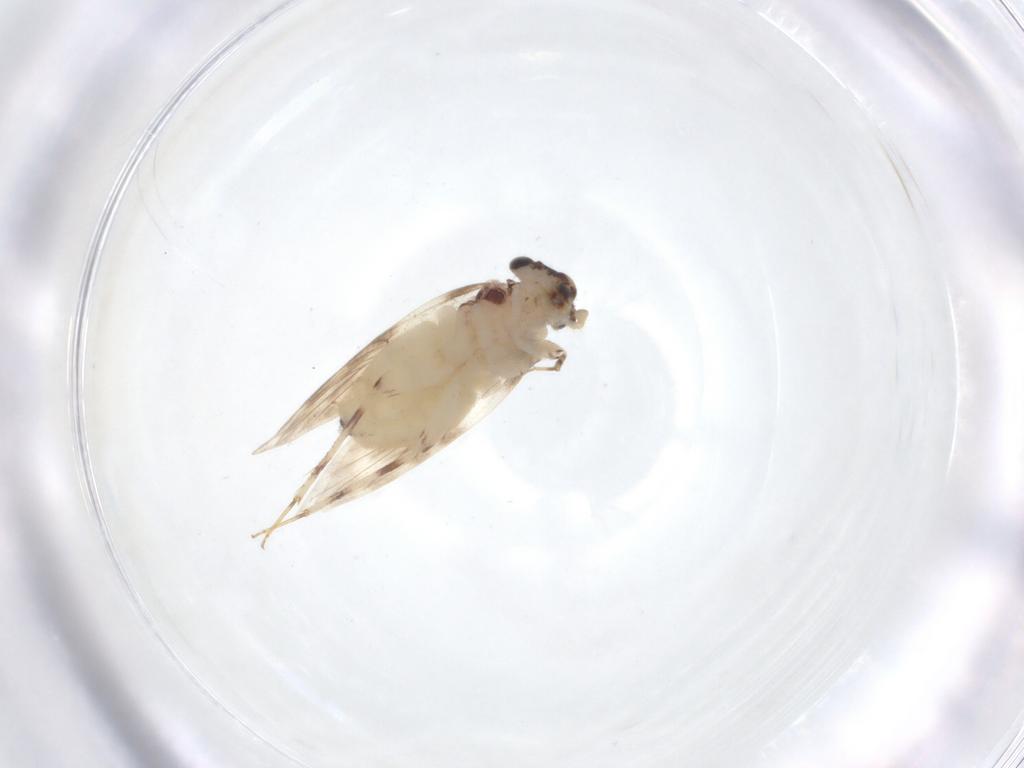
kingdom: Animalia
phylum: Arthropoda
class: Insecta
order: Psocodea
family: Lepidopsocidae
